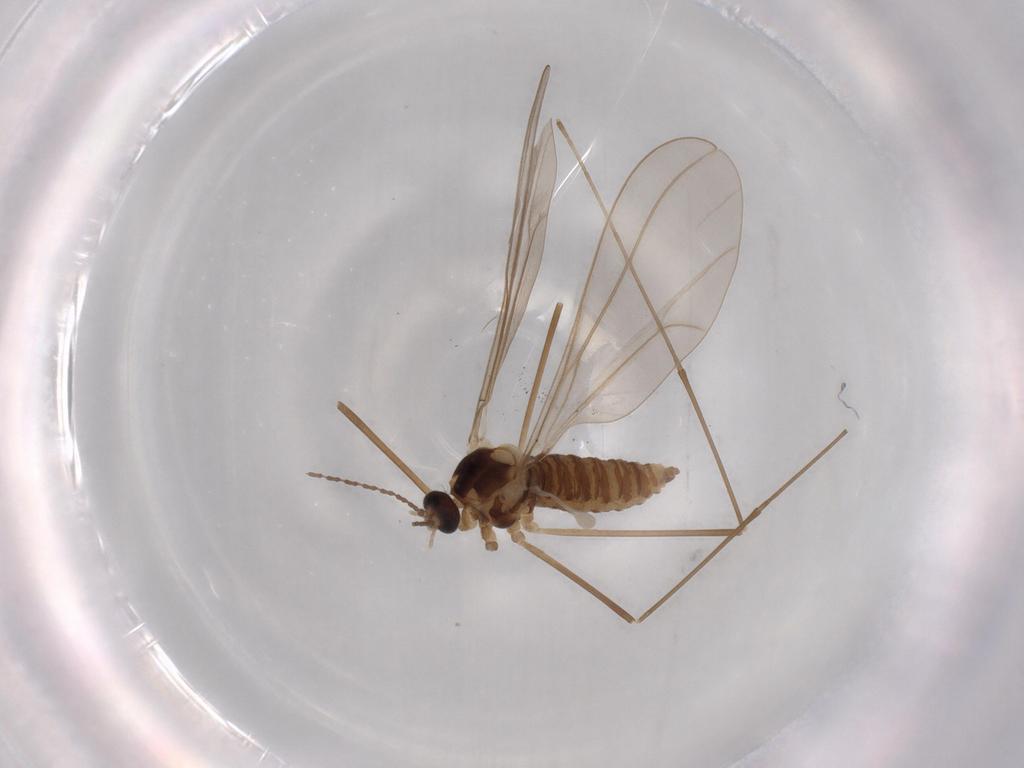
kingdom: Animalia
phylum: Arthropoda
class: Insecta
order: Diptera
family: Cecidomyiidae
